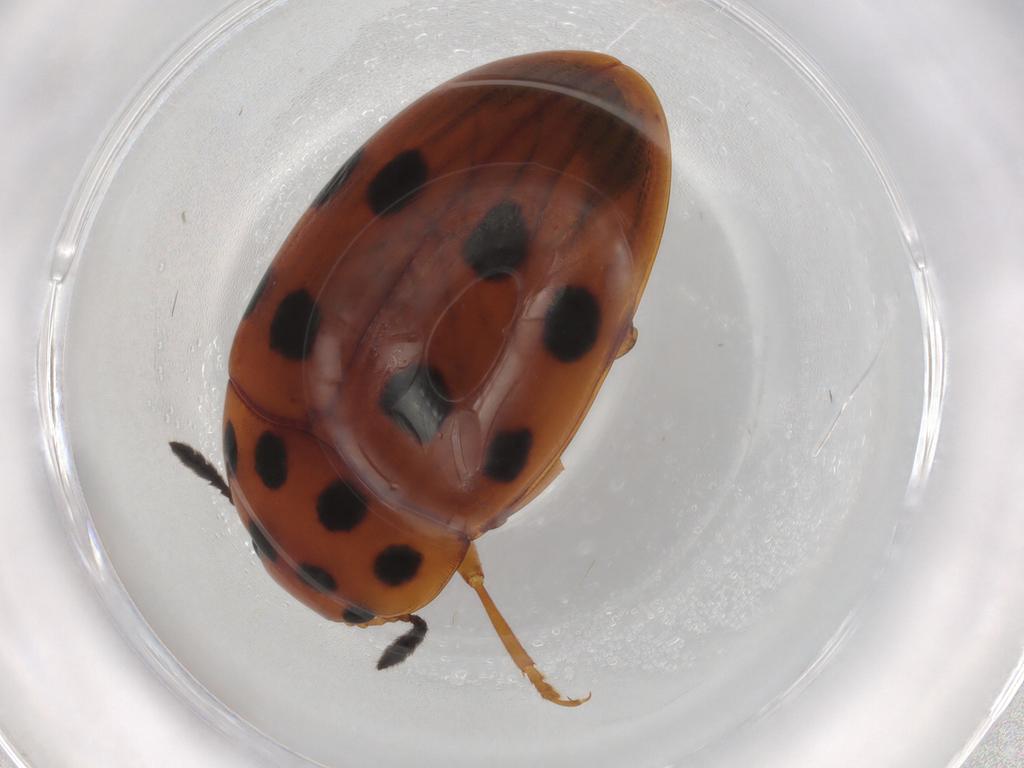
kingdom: Animalia
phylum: Arthropoda
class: Insecta
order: Coleoptera
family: Erotylidae
